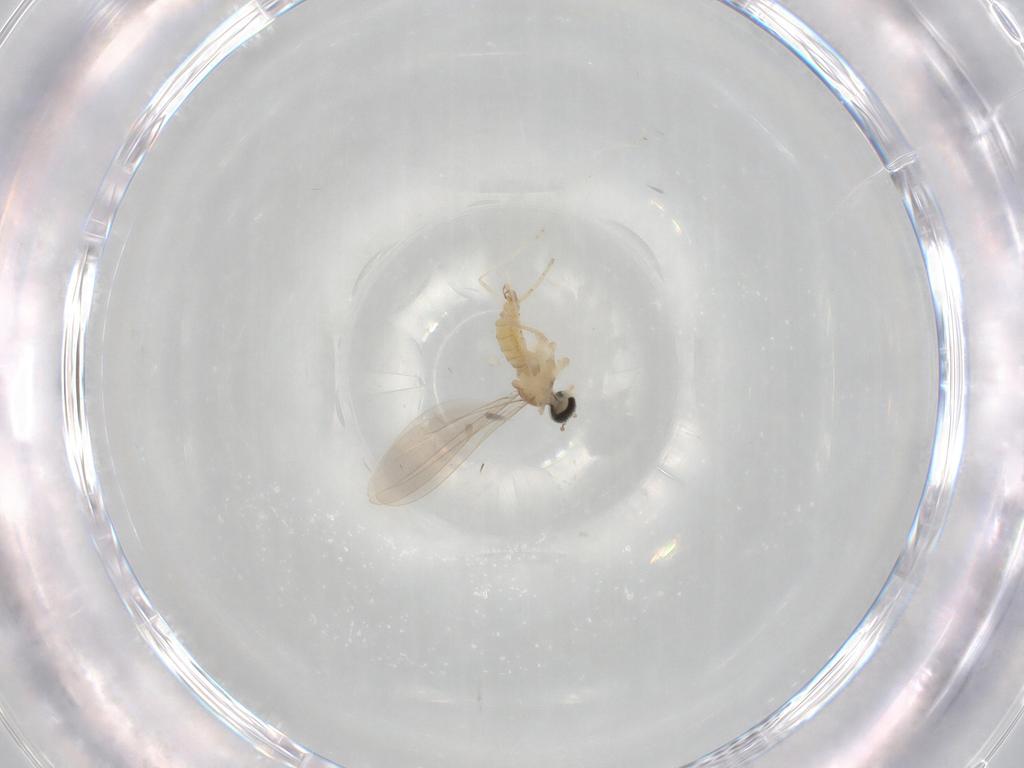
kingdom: Animalia
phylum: Arthropoda
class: Insecta
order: Diptera
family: Cecidomyiidae
